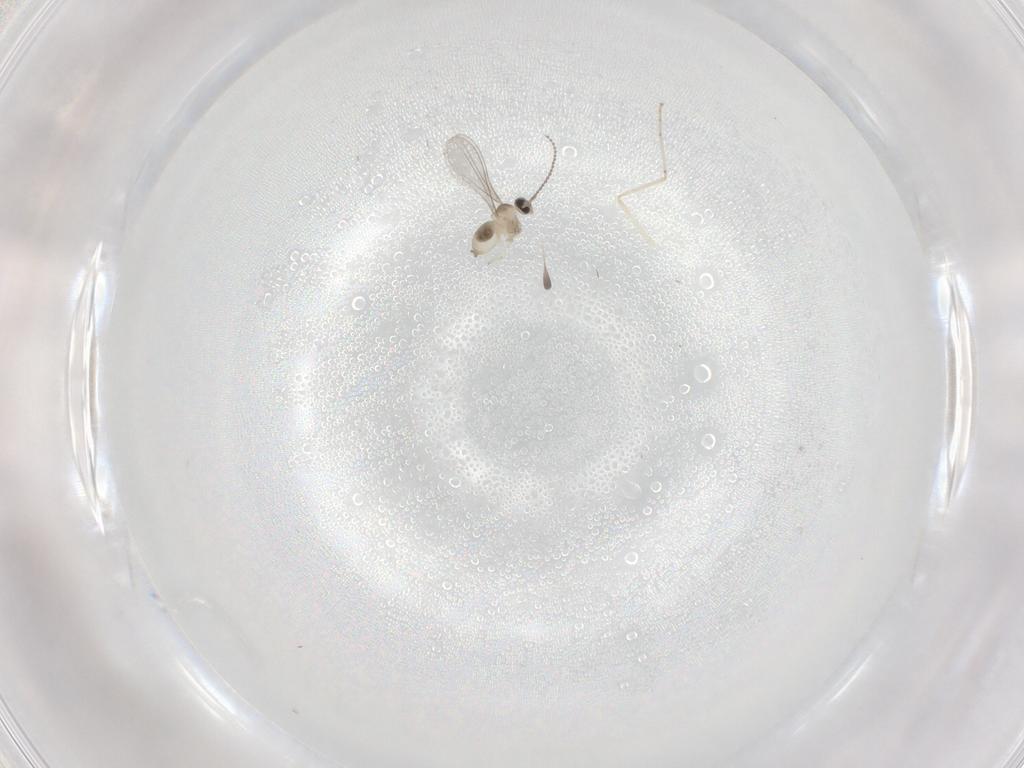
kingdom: Animalia
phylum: Arthropoda
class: Insecta
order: Diptera
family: Cecidomyiidae
